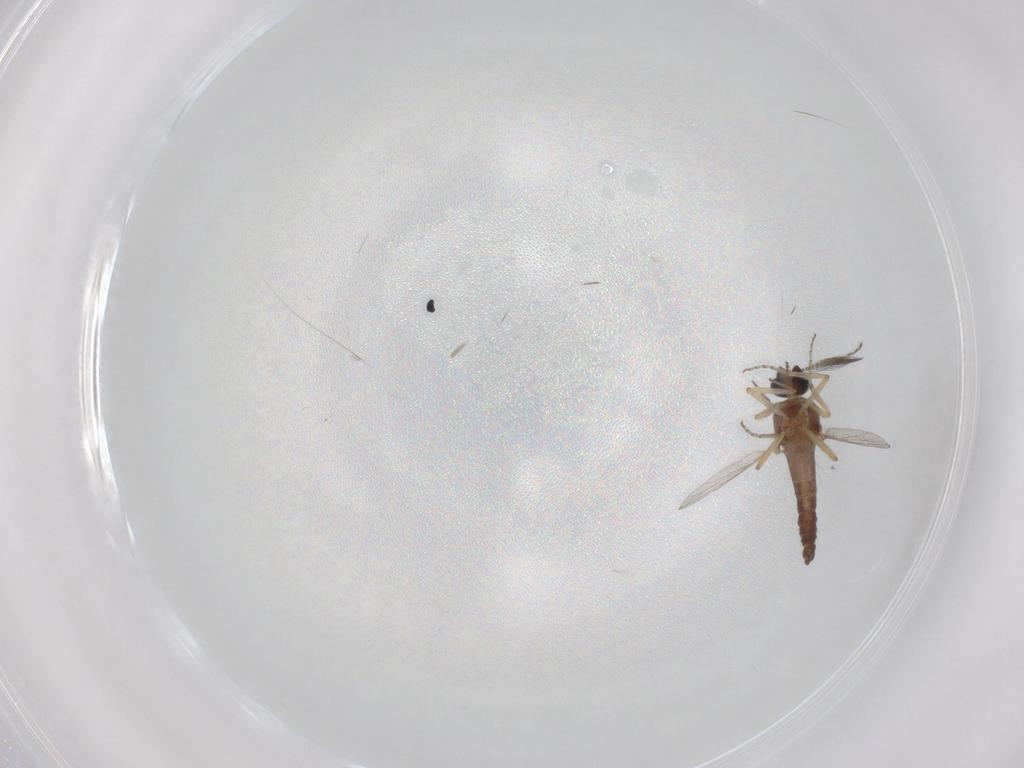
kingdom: Animalia
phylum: Arthropoda
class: Insecta
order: Diptera
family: Ceratopogonidae
